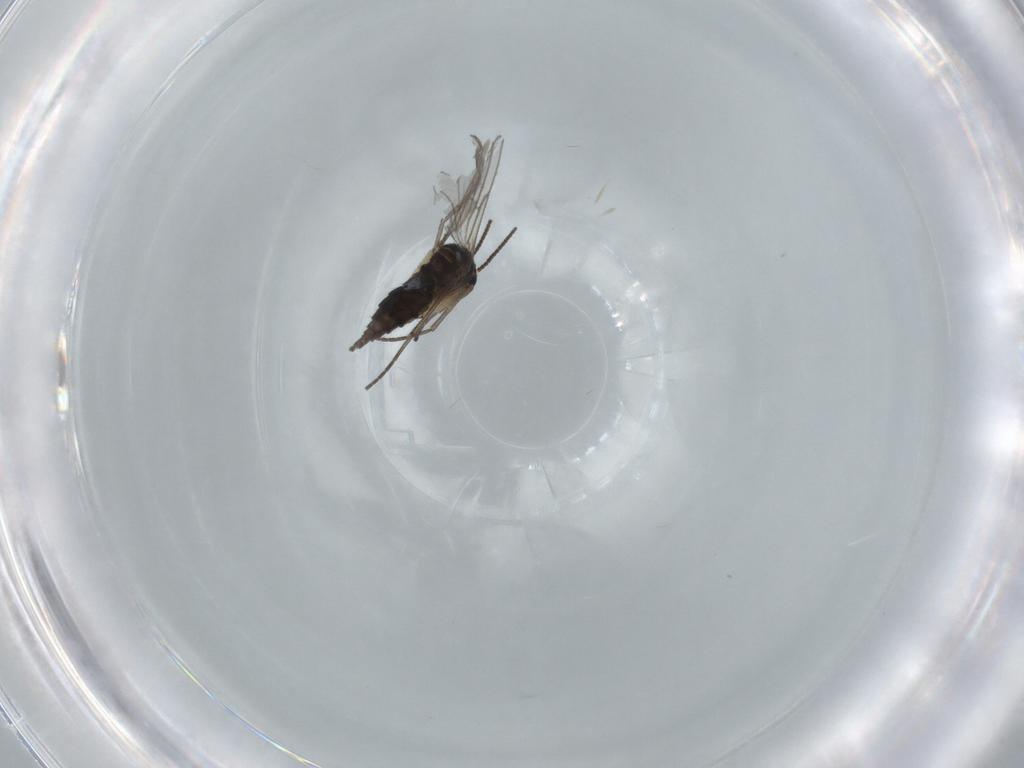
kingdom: Animalia
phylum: Arthropoda
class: Insecta
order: Diptera
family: Sciaridae
